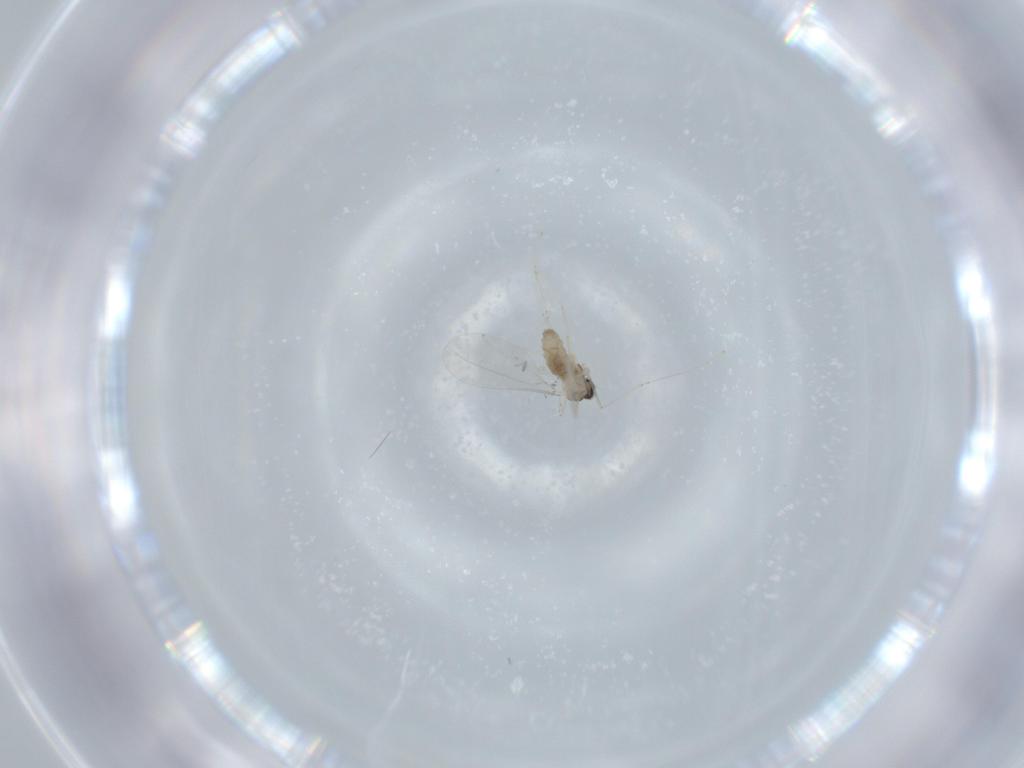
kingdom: Animalia
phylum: Arthropoda
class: Insecta
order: Diptera
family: Cecidomyiidae
